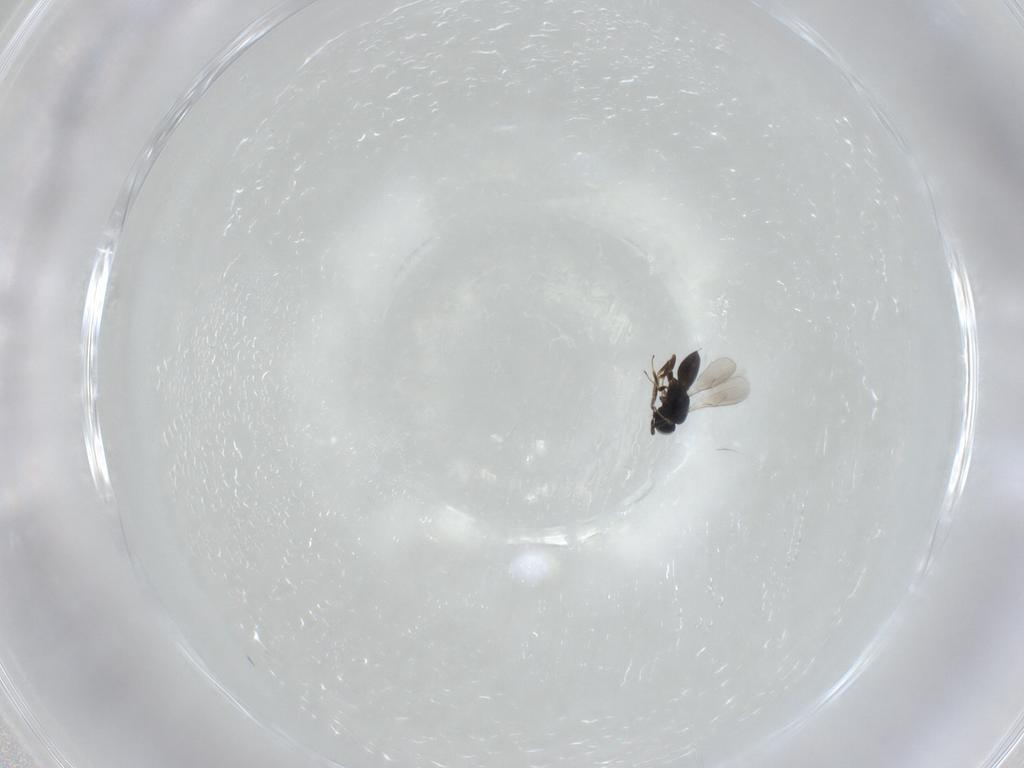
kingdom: Animalia
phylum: Arthropoda
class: Insecta
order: Hymenoptera
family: Scelionidae
